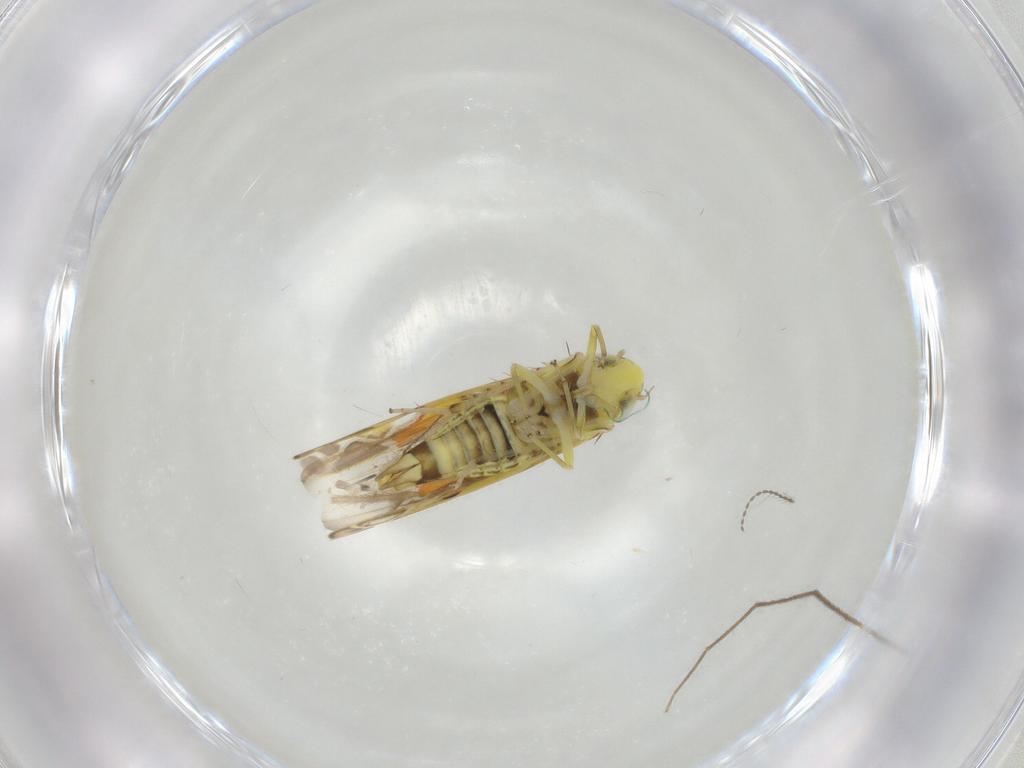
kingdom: Animalia
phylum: Arthropoda
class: Insecta
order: Hemiptera
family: Cicadellidae
